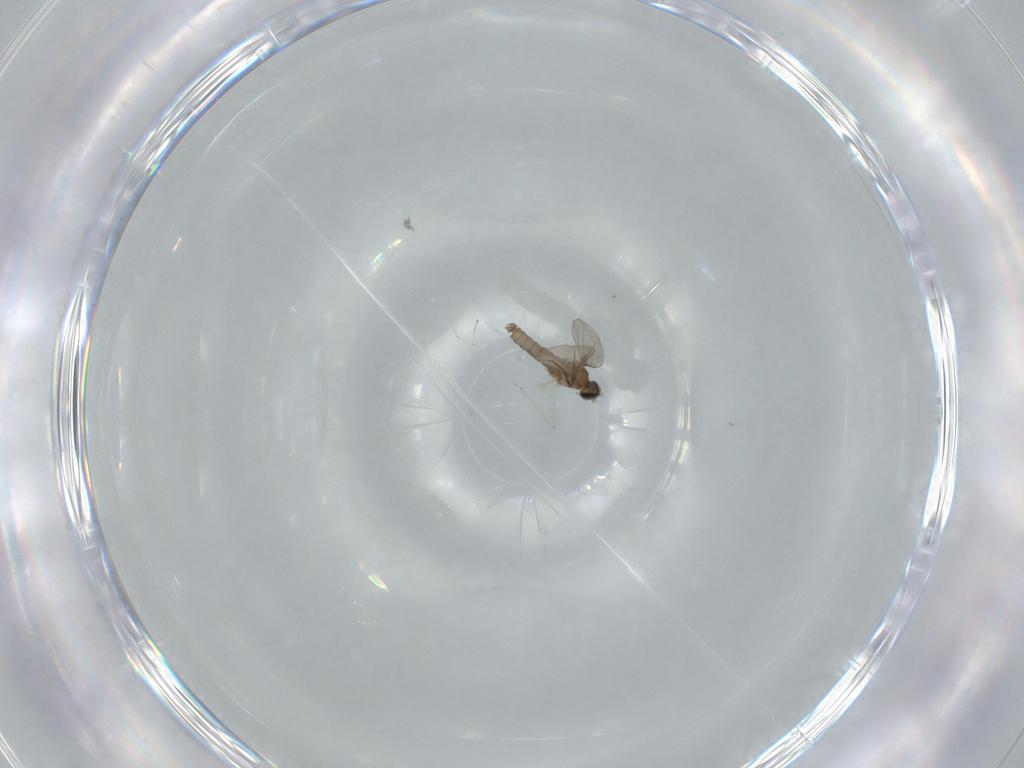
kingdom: Animalia
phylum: Arthropoda
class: Insecta
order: Diptera
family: Cecidomyiidae
